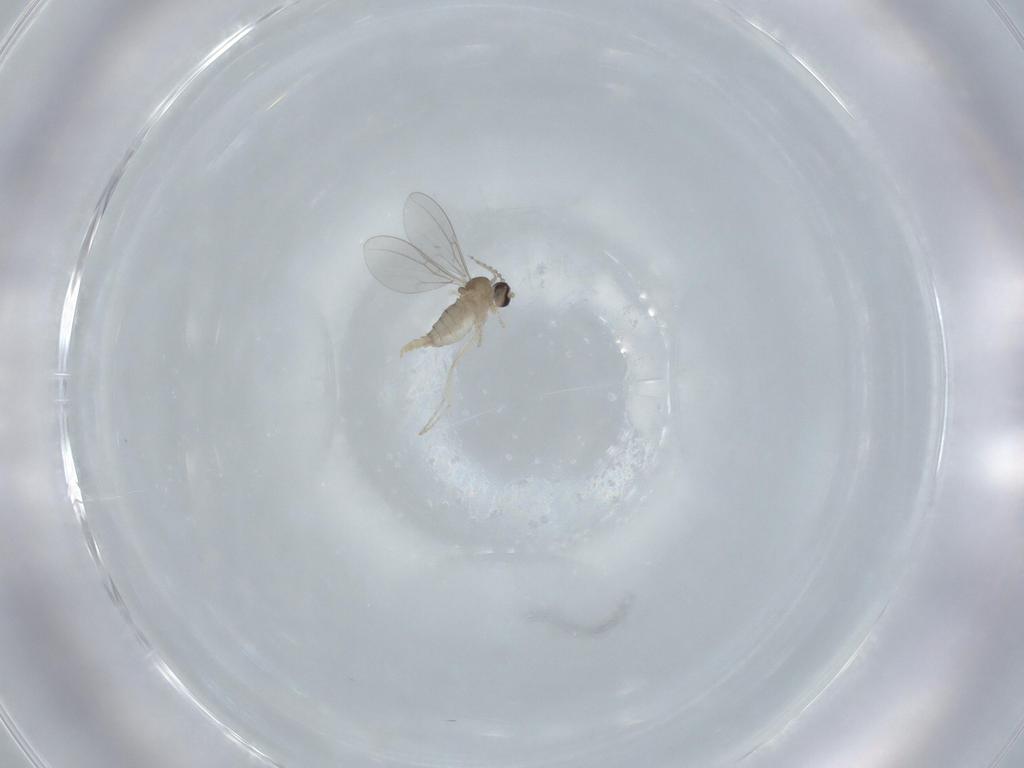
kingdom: Animalia
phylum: Arthropoda
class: Insecta
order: Diptera
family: Cecidomyiidae
